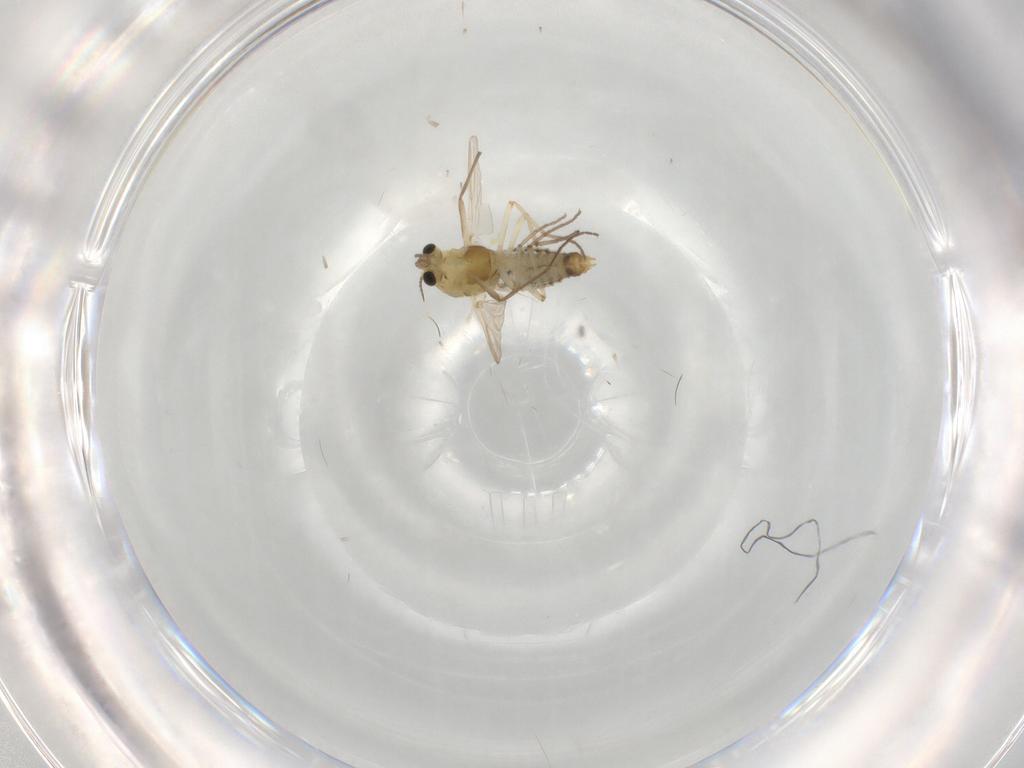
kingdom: Animalia
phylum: Arthropoda
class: Insecta
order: Diptera
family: Chironomidae
